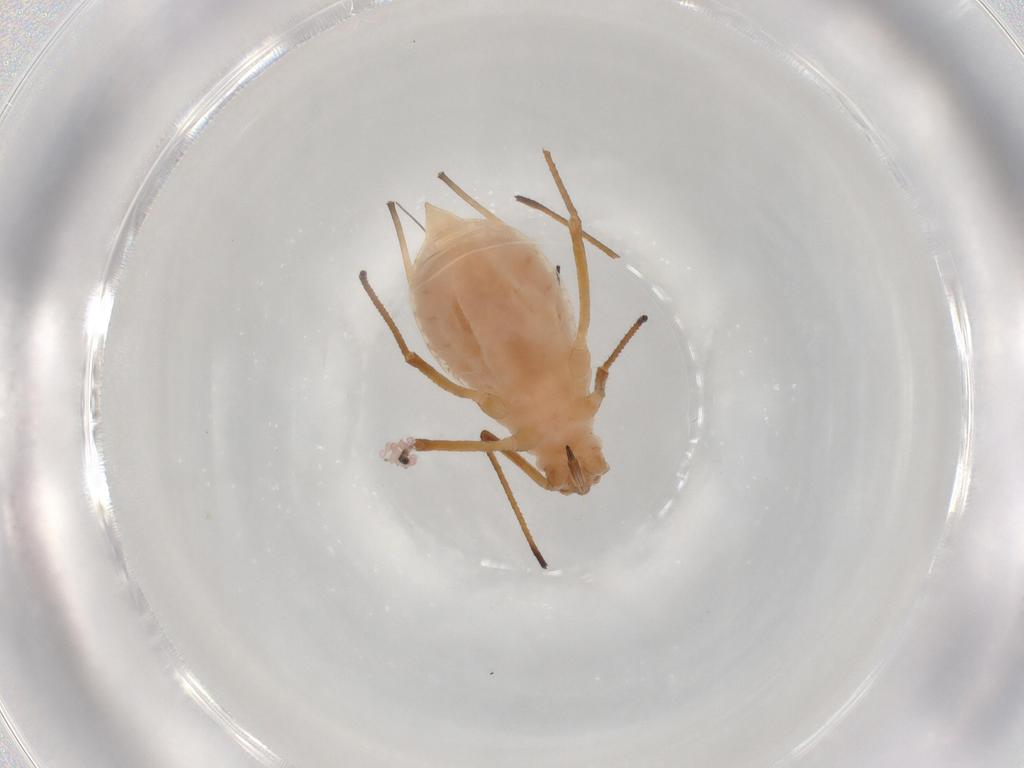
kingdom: Animalia
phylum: Arthropoda
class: Insecta
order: Hemiptera
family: Aphididae
